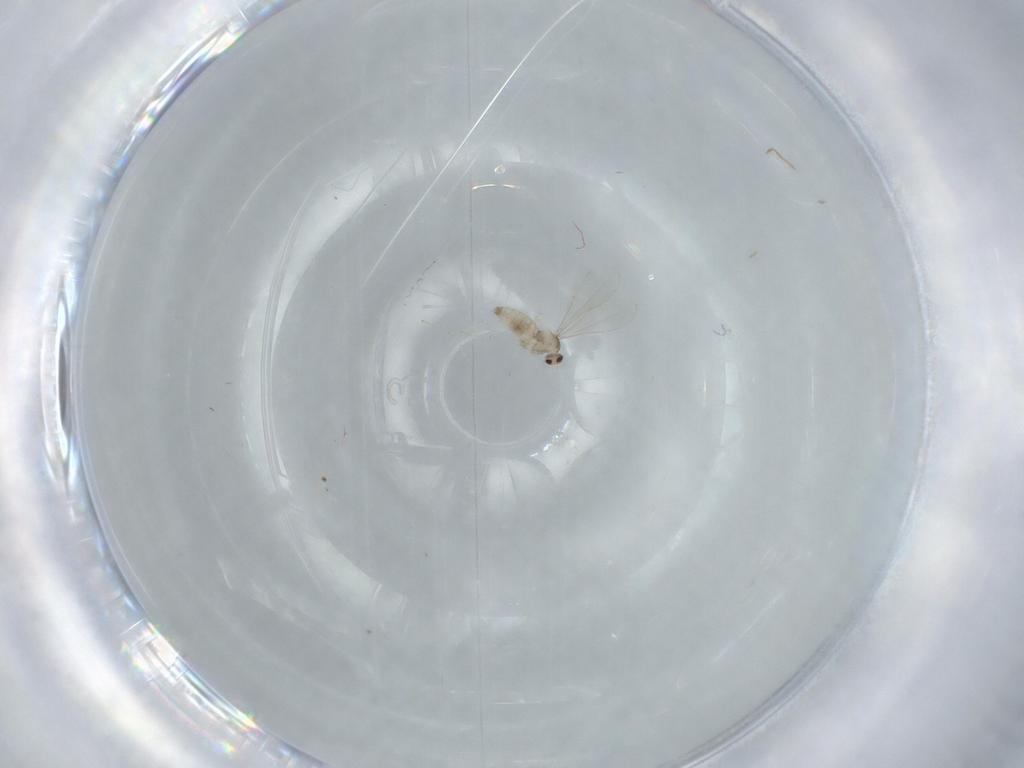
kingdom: Animalia
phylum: Arthropoda
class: Insecta
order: Diptera
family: Cecidomyiidae
